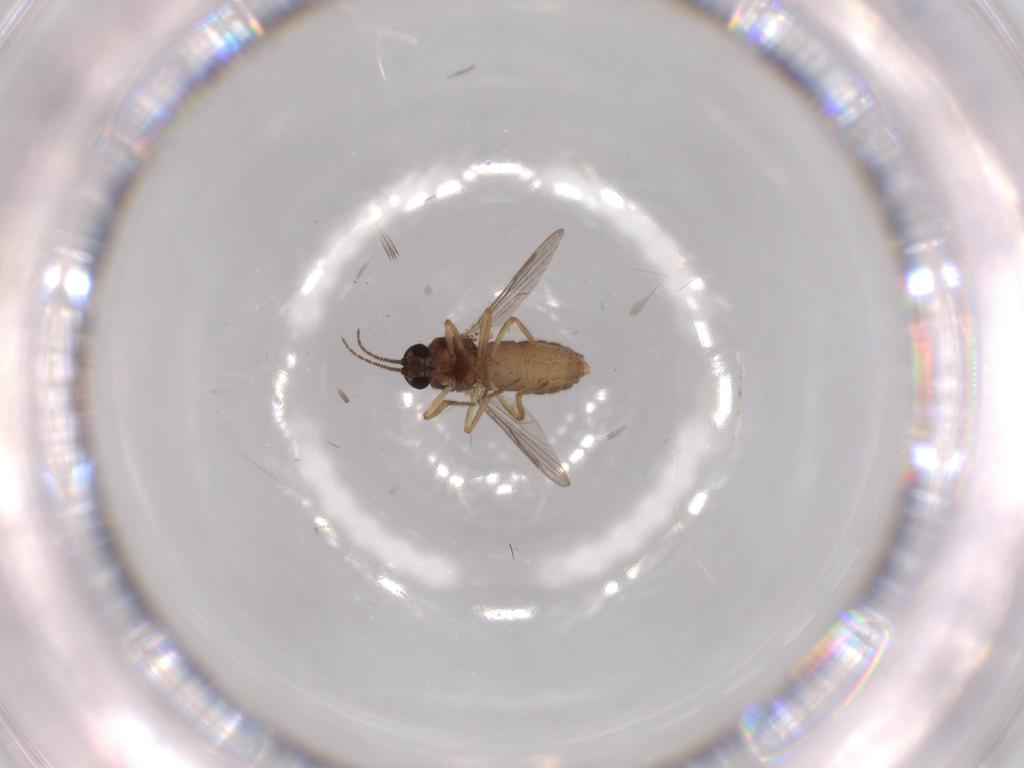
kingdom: Animalia
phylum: Arthropoda
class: Insecta
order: Diptera
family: Ceratopogonidae
